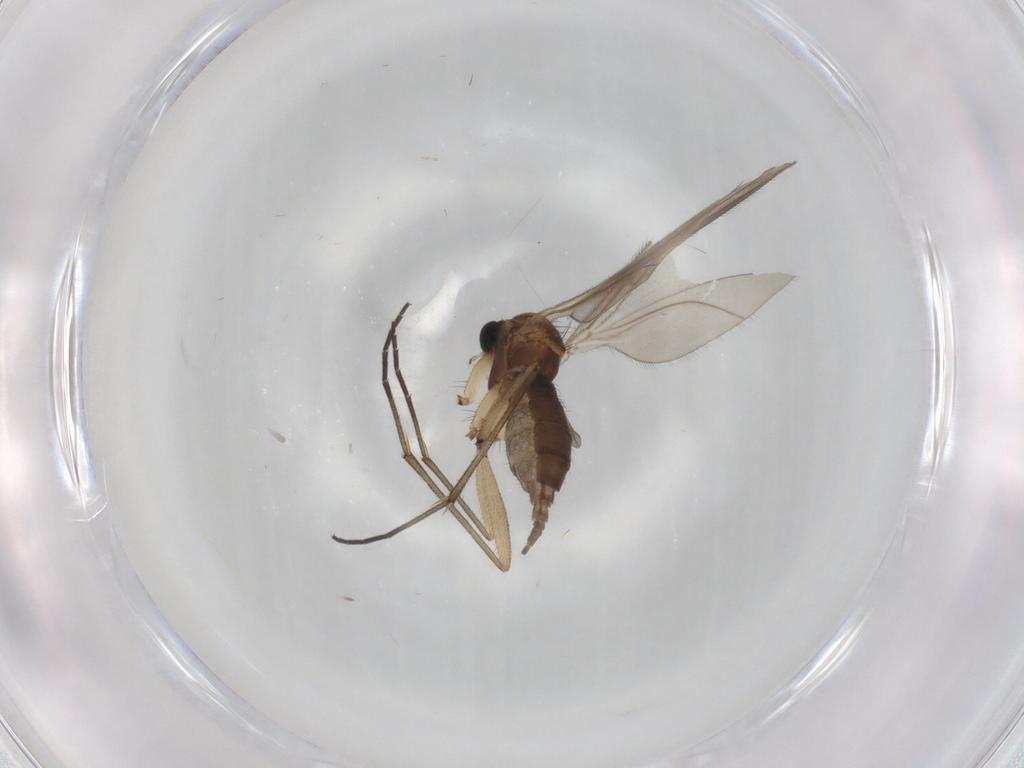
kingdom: Animalia
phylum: Arthropoda
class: Insecta
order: Diptera
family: Sciaridae
